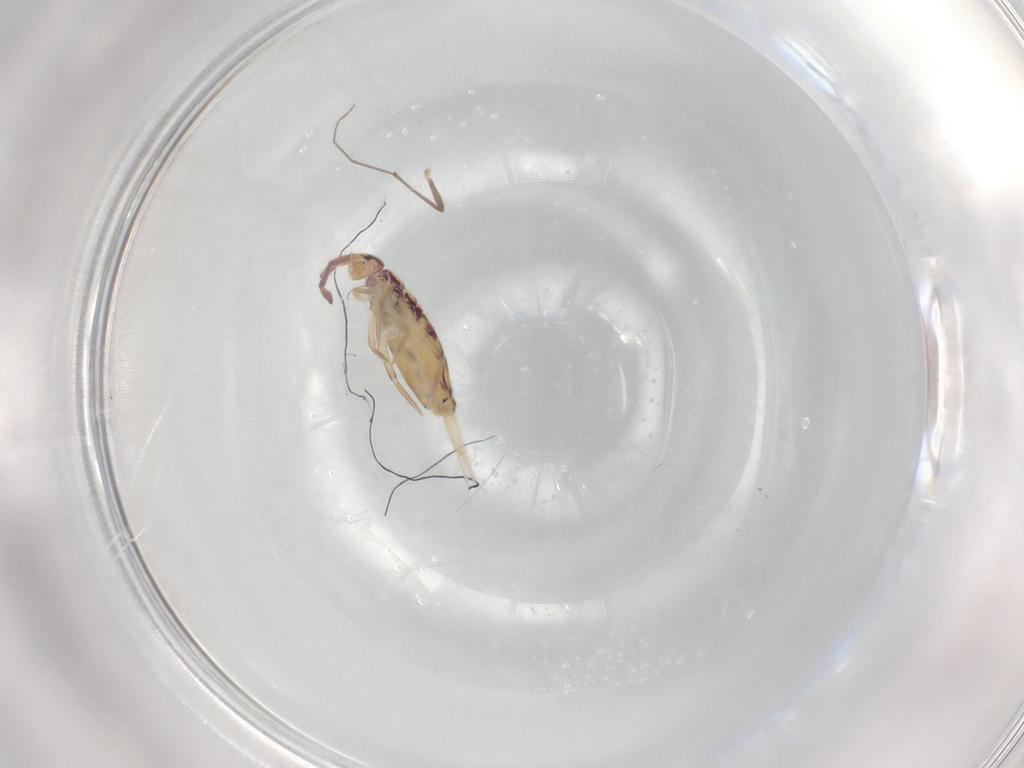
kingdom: Animalia
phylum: Arthropoda
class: Collembola
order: Entomobryomorpha
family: Entomobryidae
